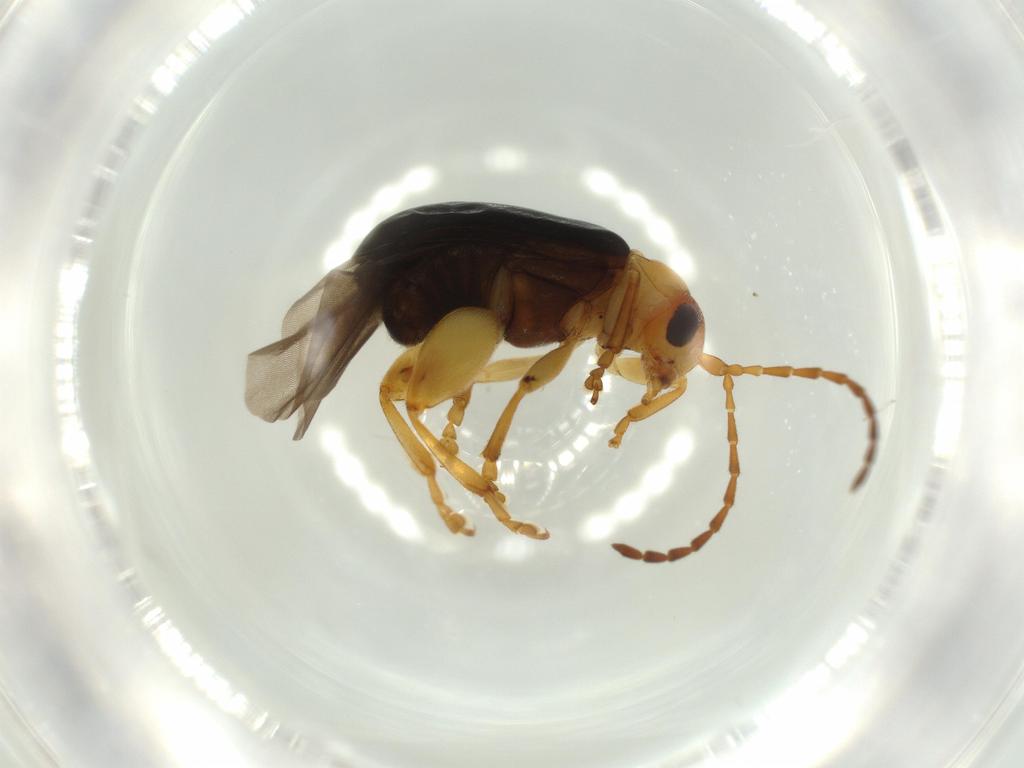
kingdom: Animalia
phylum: Arthropoda
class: Insecta
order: Coleoptera
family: Chrysomelidae
